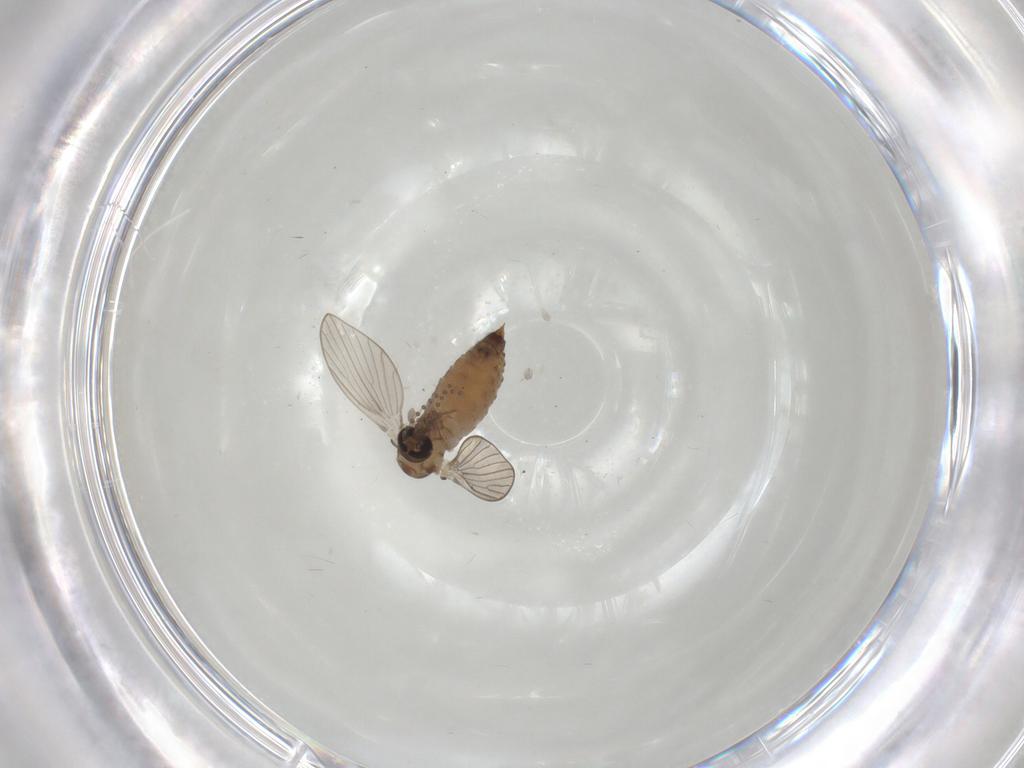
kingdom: Animalia
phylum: Arthropoda
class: Insecta
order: Diptera
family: Psychodidae
